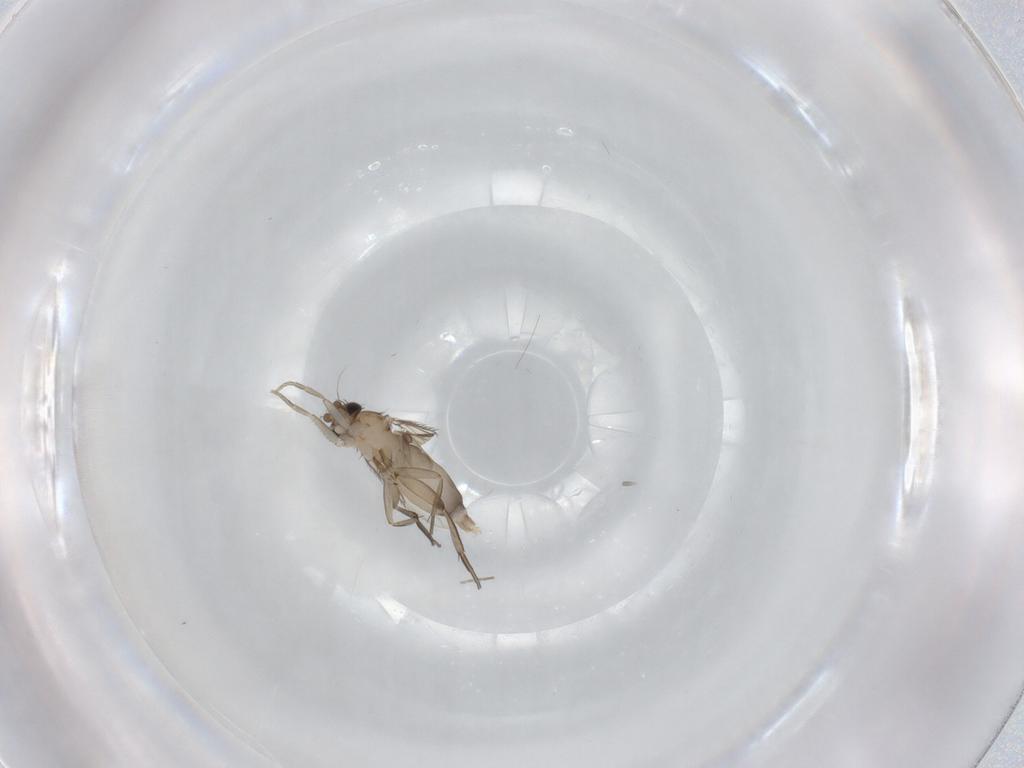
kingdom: Animalia
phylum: Arthropoda
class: Insecta
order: Diptera
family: Phoridae
